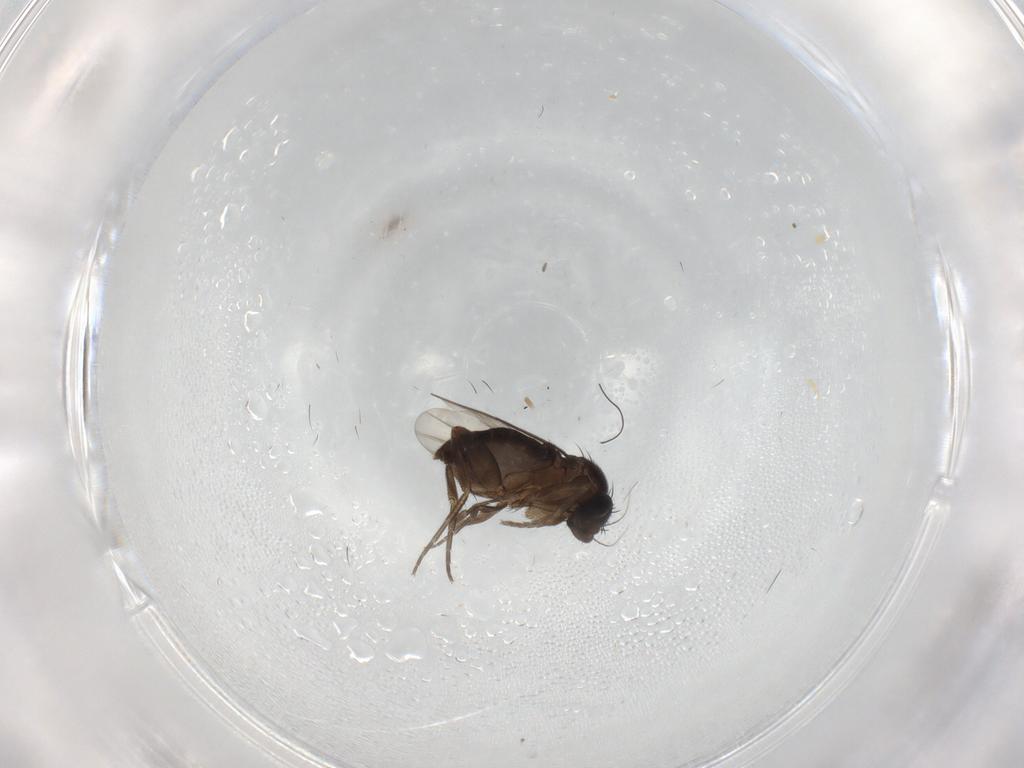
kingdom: Animalia
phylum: Arthropoda
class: Insecta
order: Diptera
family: Phoridae
